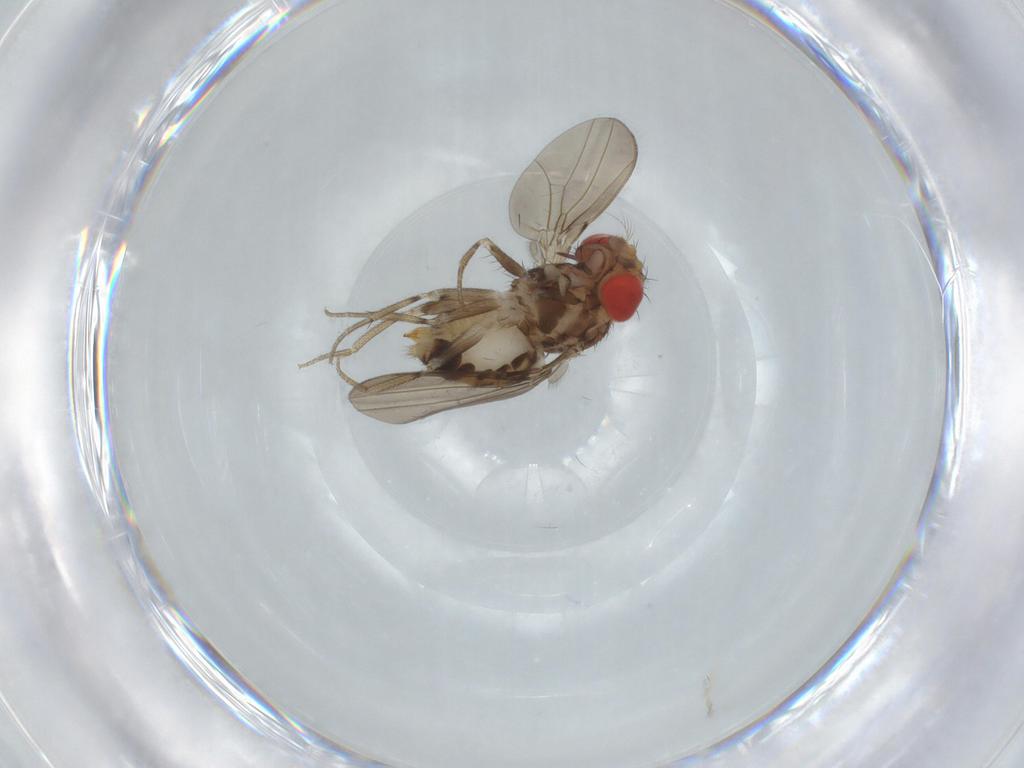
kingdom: Animalia
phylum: Arthropoda
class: Insecta
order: Diptera
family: Drosophilidae
